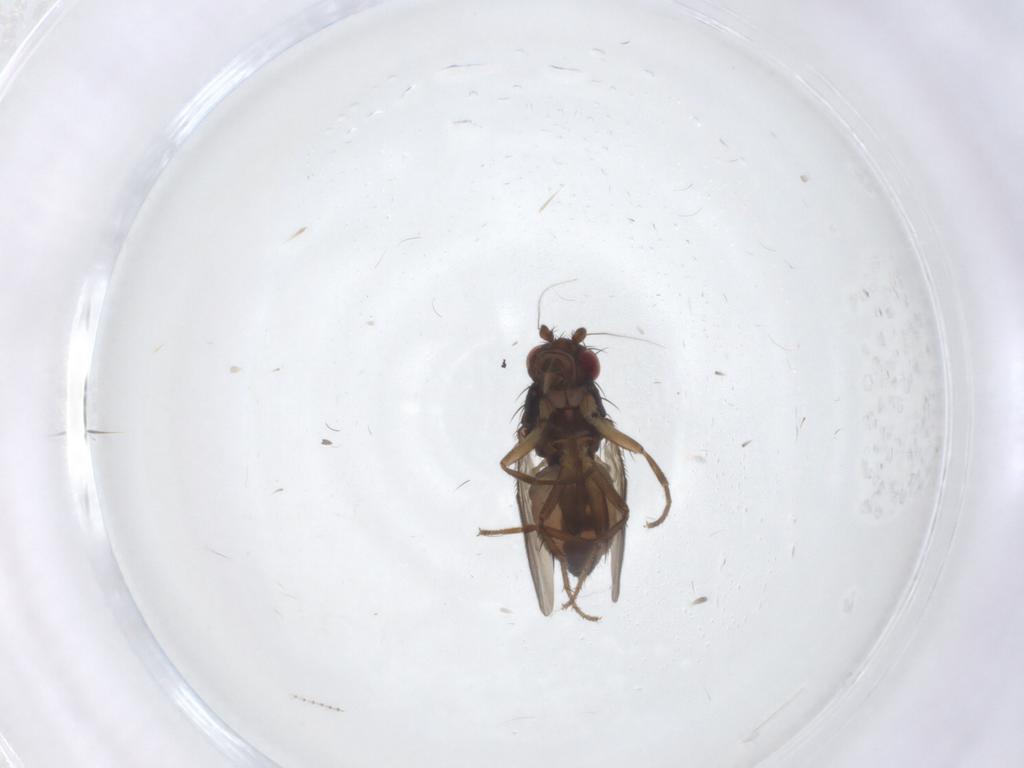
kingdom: Animalia
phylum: Arthropoda
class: Insecta
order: Diptera
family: Cecidomyiidae
